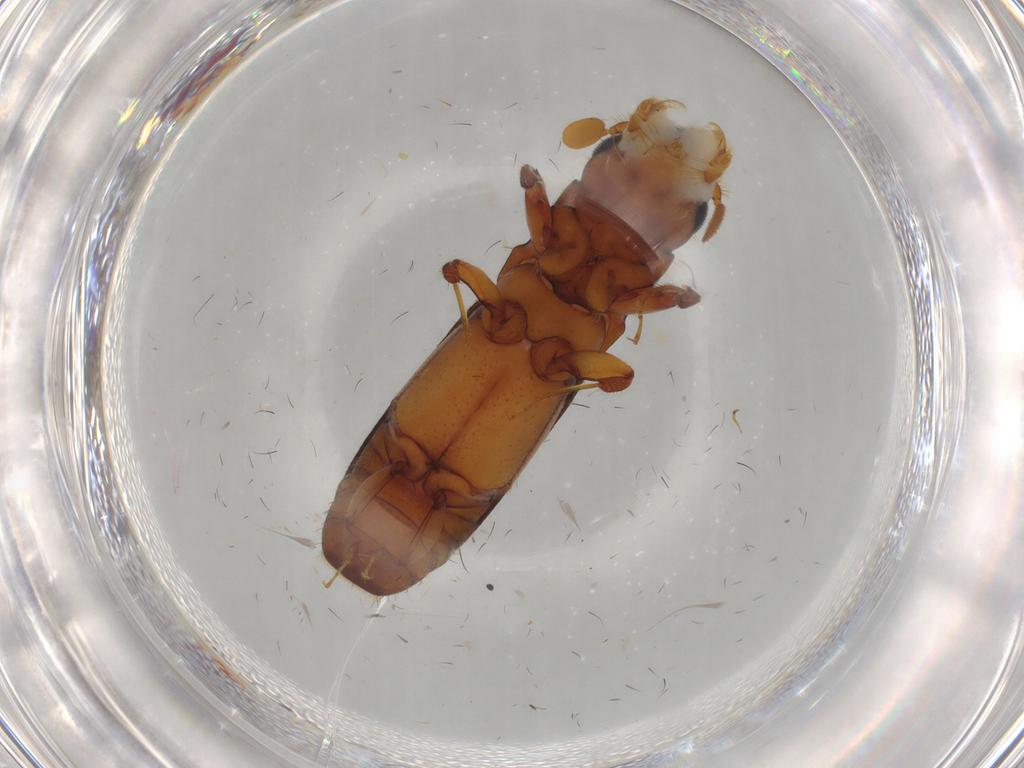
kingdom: Animalia
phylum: Arthropoda
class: Insecta
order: Coleoptera
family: Curculionidae
